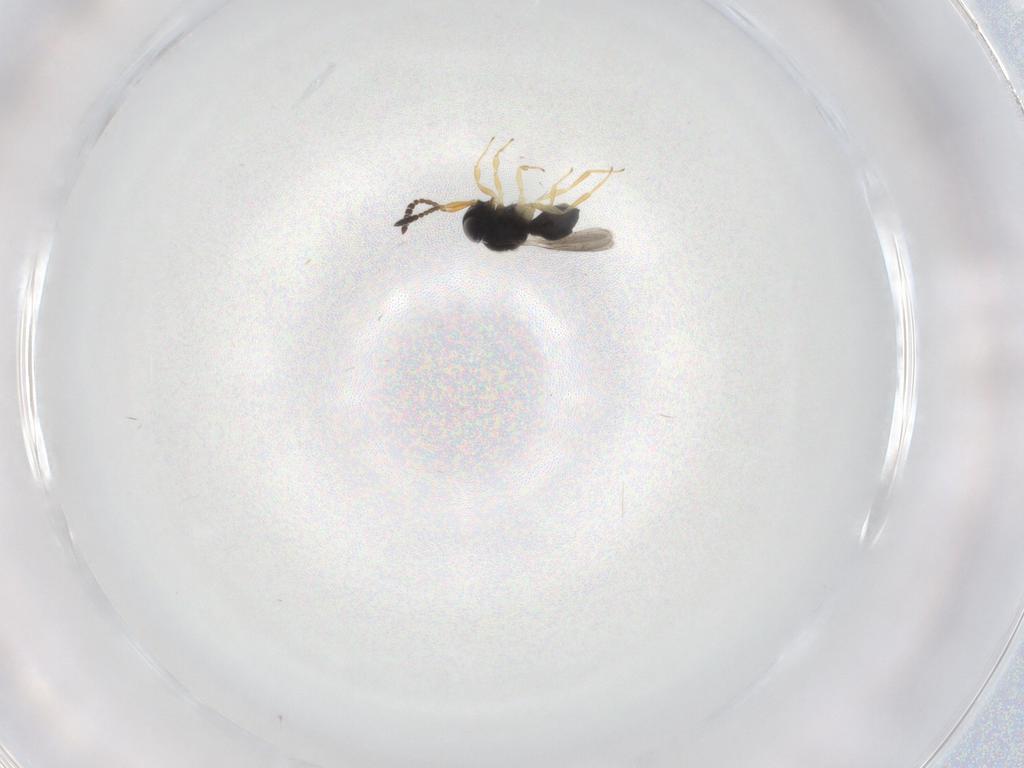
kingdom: Animalia
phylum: Arthropoda
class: Insecta
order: Hymenoptera
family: Scelionidae
